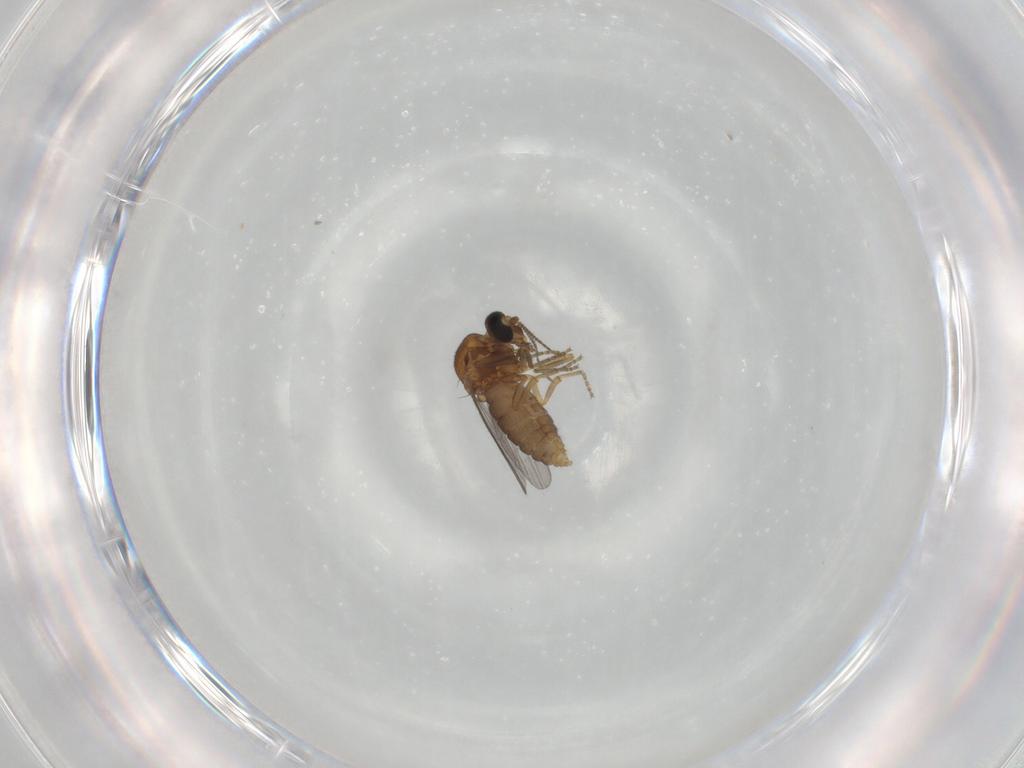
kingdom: Animalia
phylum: Arthropoda
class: Insecta
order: Diptera
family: Ceratopogonidae
